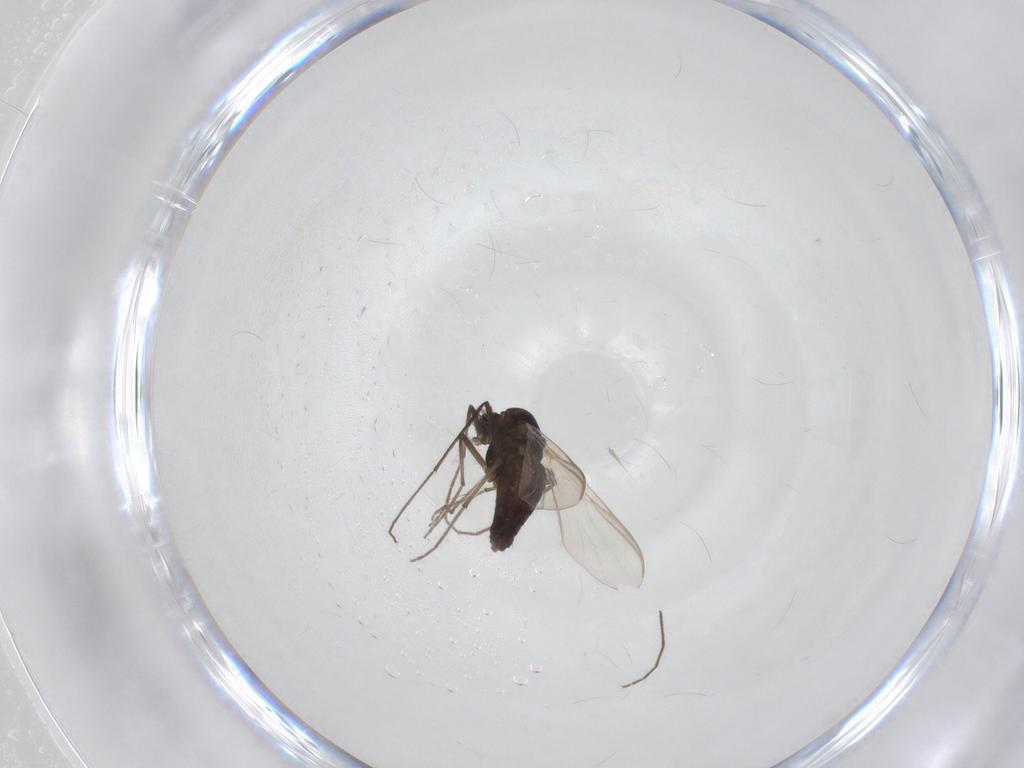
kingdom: Animalia
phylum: Arthropoda
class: Insecta
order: Diptera
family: Chironomidae
